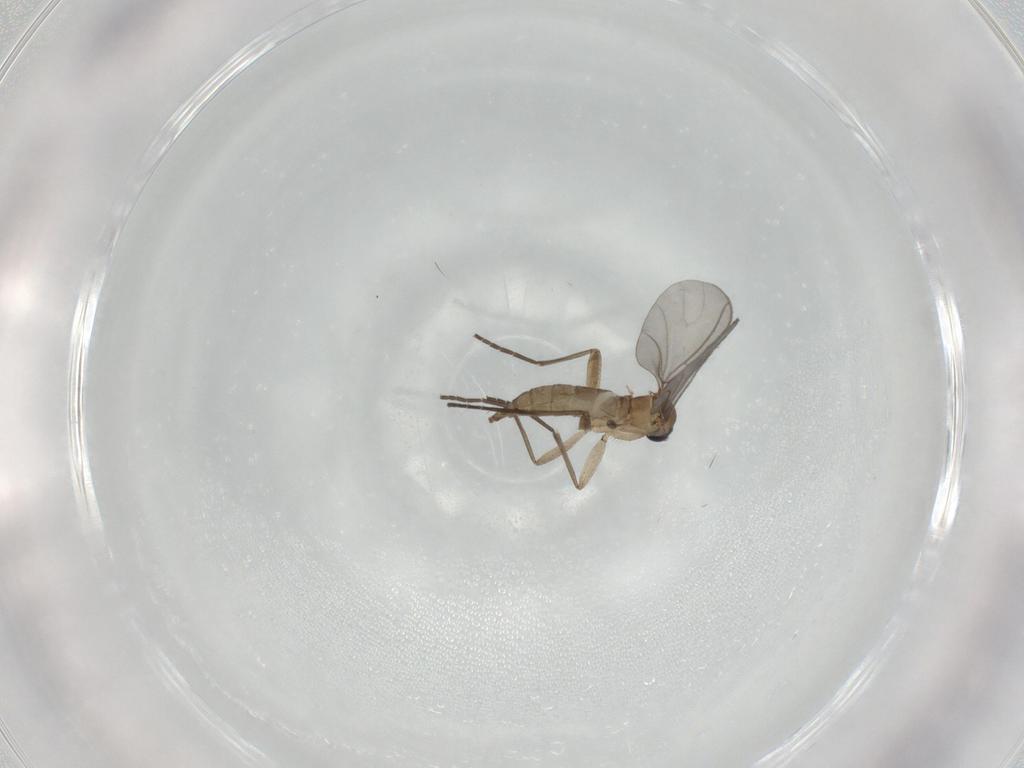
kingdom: Animalia
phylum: Arthropoda
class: Insecta
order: Diptera
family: Sciaridae
